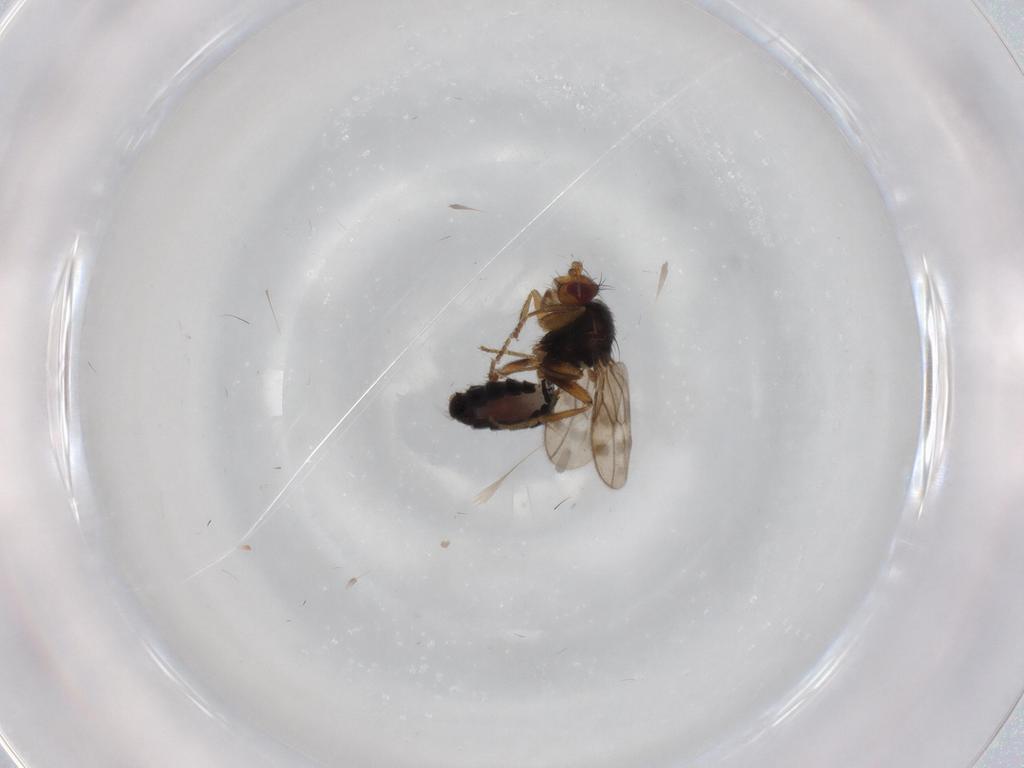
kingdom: Animalia
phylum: Arthropoda
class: Insecta
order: Diptera
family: Sphaeroceridae
